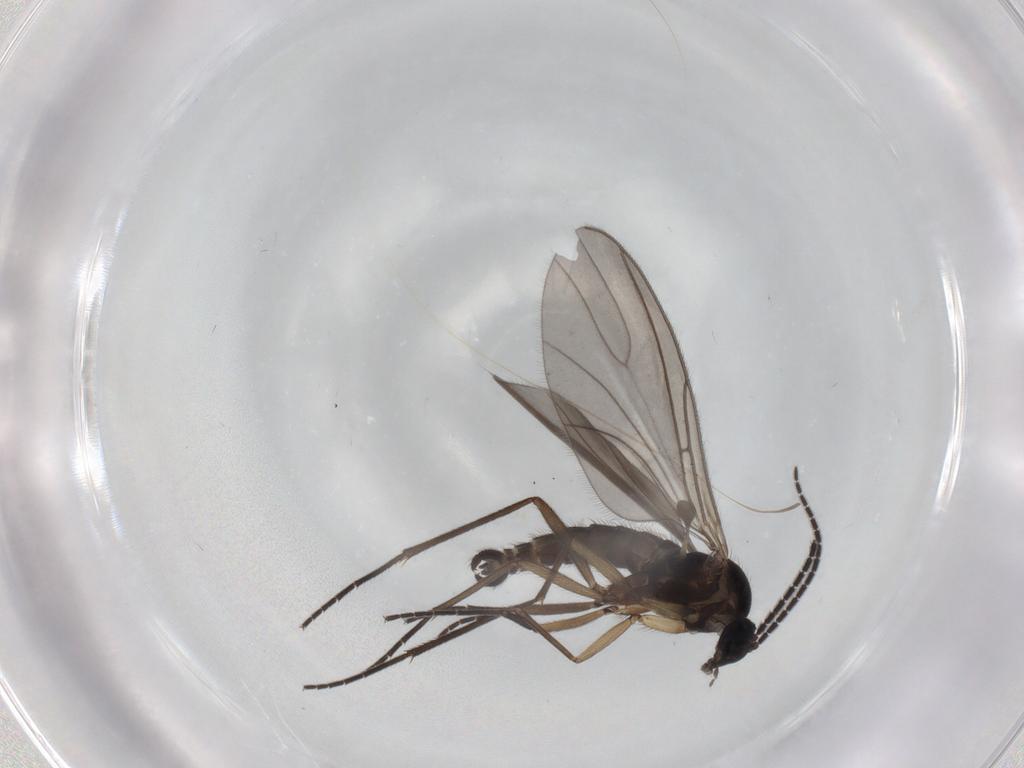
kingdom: Animalia
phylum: Arthropoda
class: Insecta
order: Diptera
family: Sciaridae
